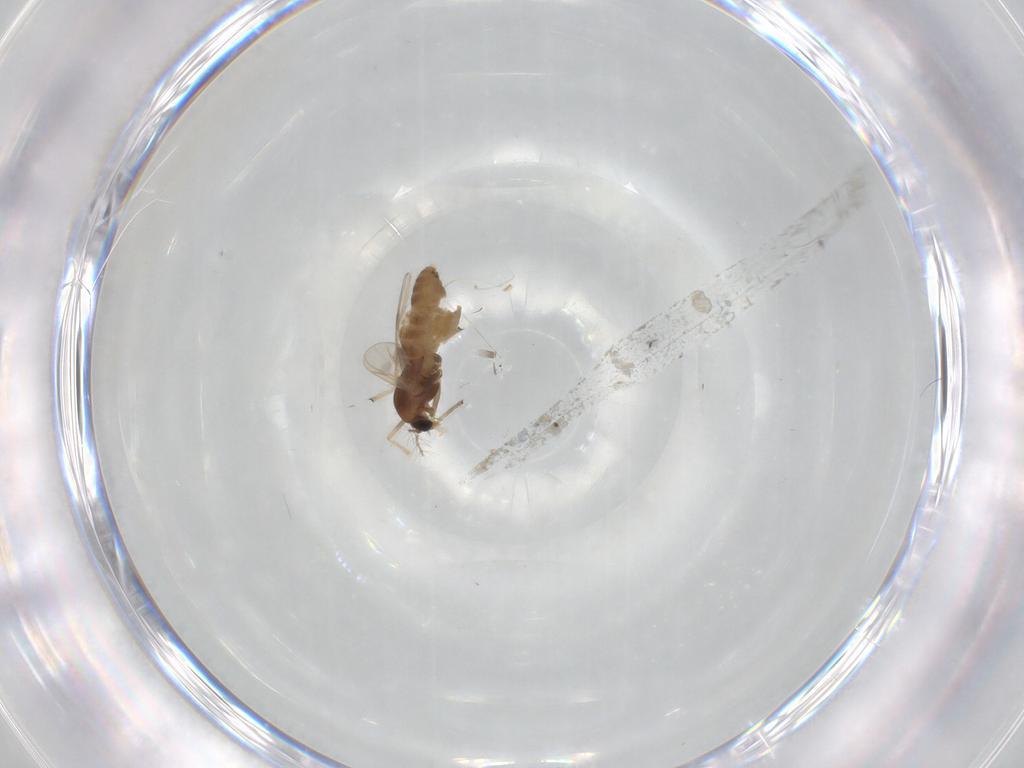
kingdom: Animalia
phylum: Arthropoda
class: Insecta
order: Diptera
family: Chironomidae
